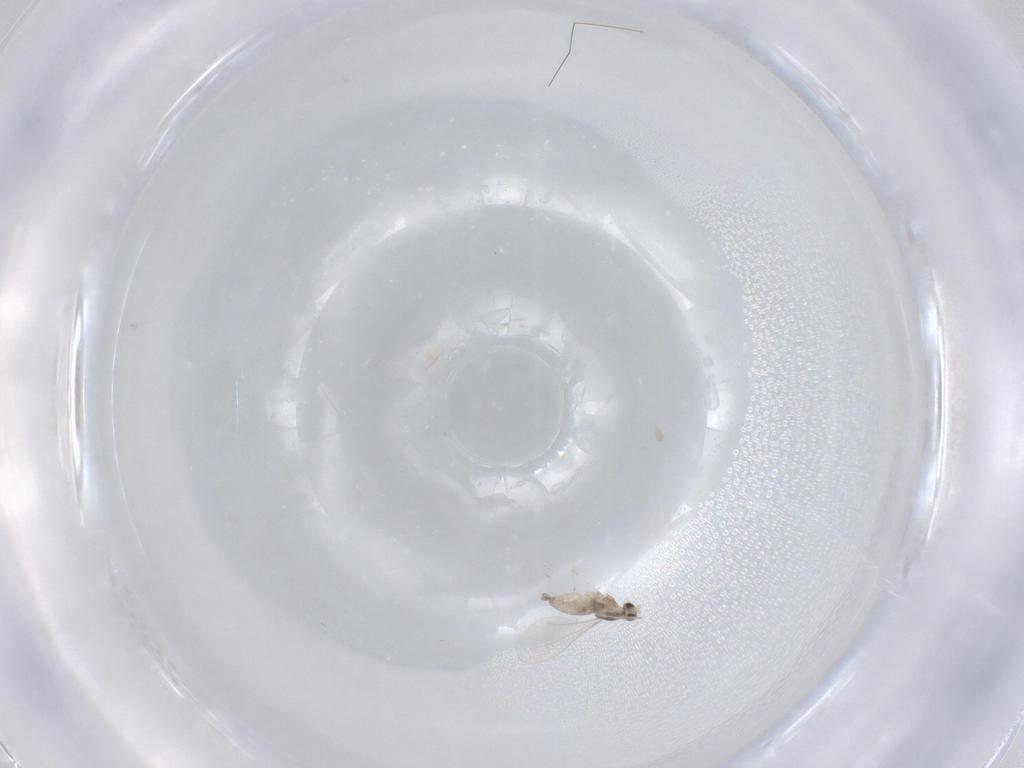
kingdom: Animalia
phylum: Arthropoda
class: Insecta
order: Diptera
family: Cecidomyiidae
